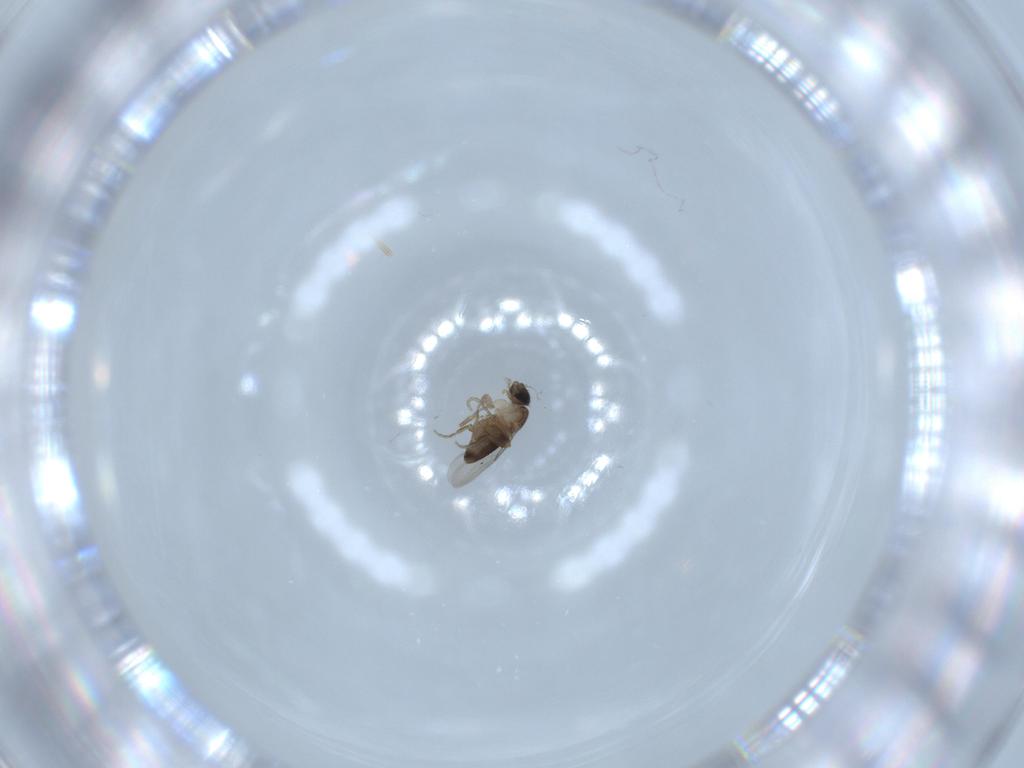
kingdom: Animalia
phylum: Arthropoda
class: Insecta
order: Diptera
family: Phoridae
